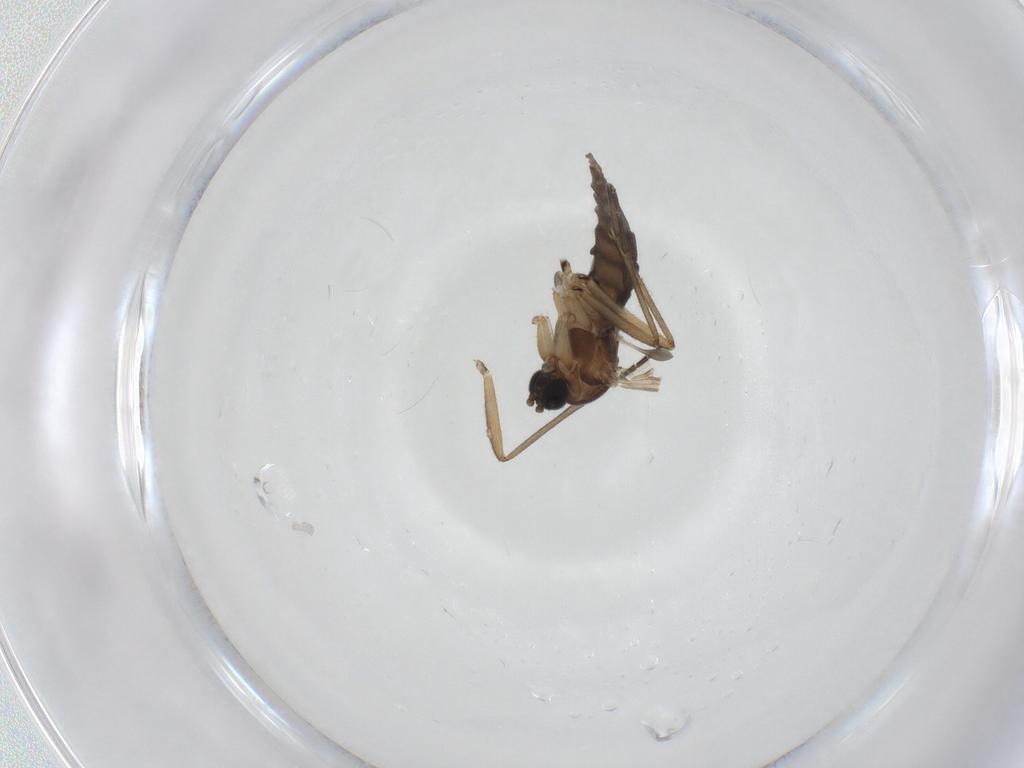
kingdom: Animalia
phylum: Arthropoda
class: Insecta
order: Diptera
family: Sciaridae
